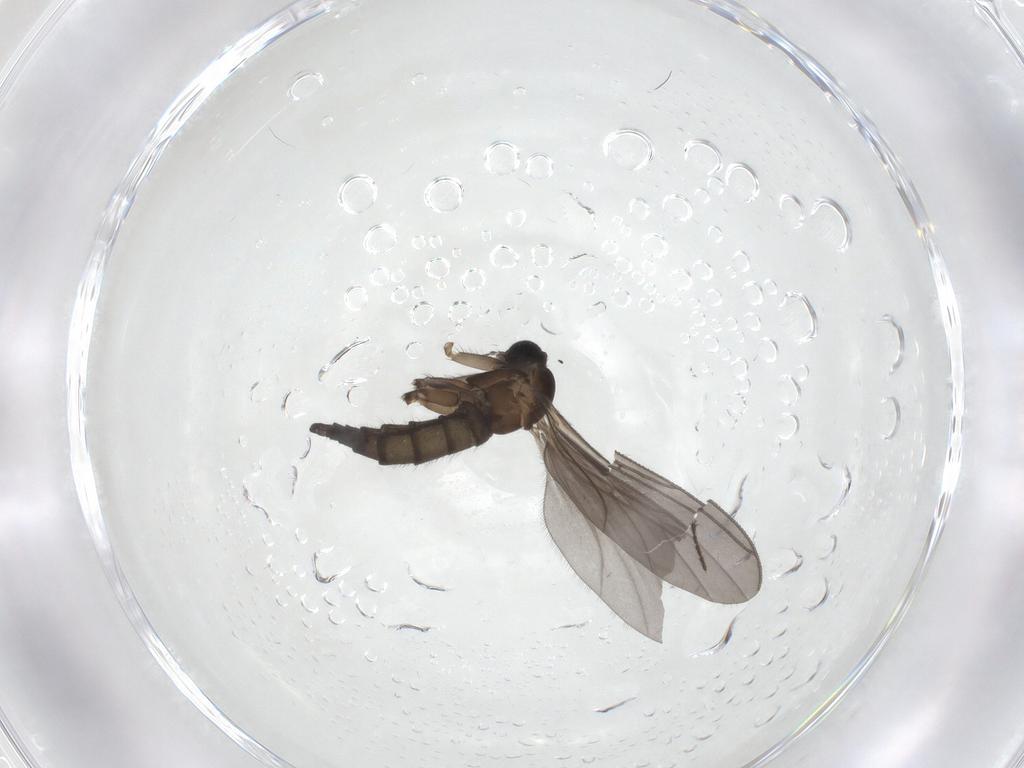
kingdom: Animalia
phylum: Arthropoda
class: Insecta
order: Diptera
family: Sciaridae
